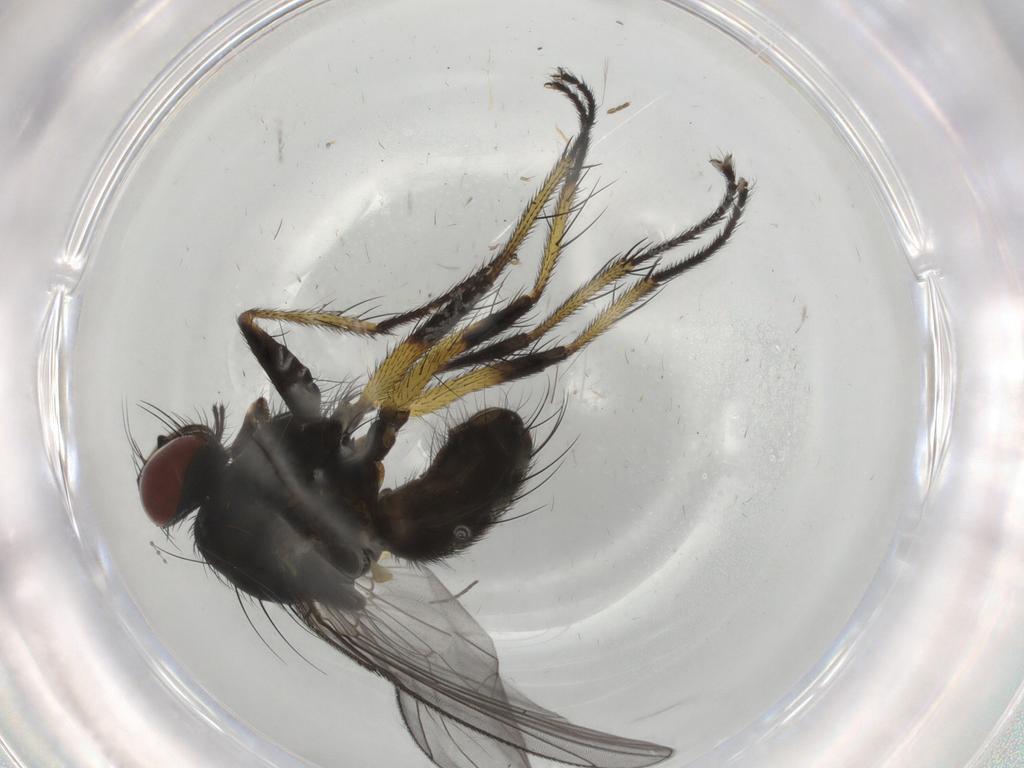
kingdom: Animalia
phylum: Arthropoda
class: Insecta
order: Diptera
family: Muscidae
